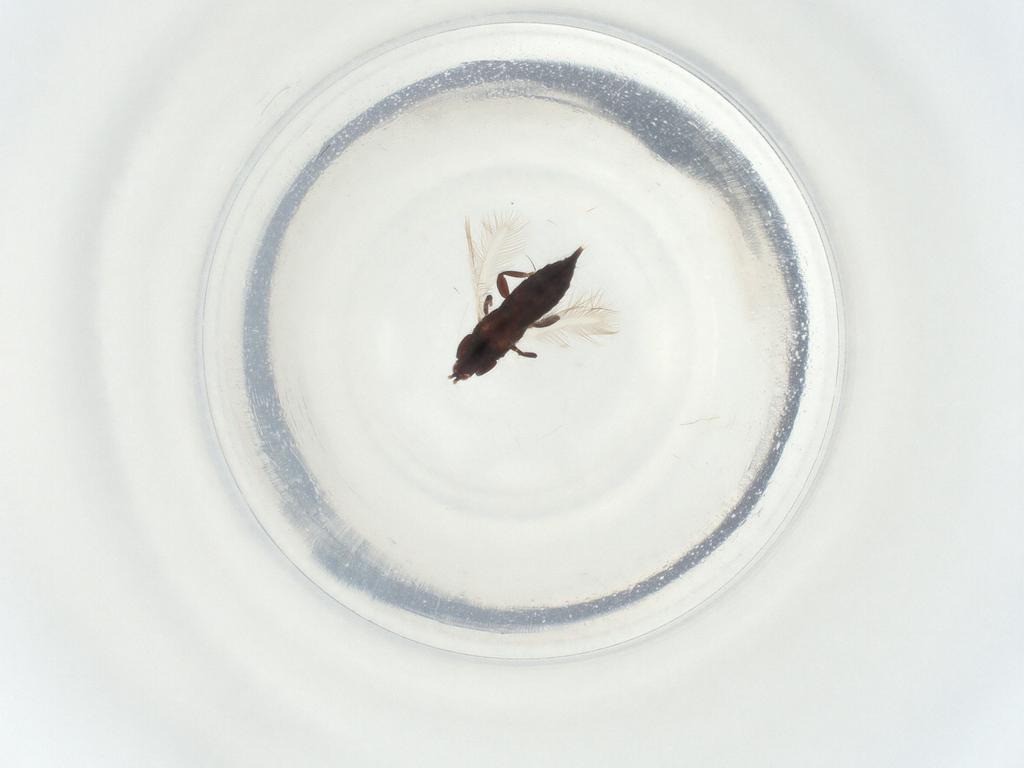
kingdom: Animalia
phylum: Arthropoda
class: Insecta
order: Thysanoptera
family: Phlaeothripidae
